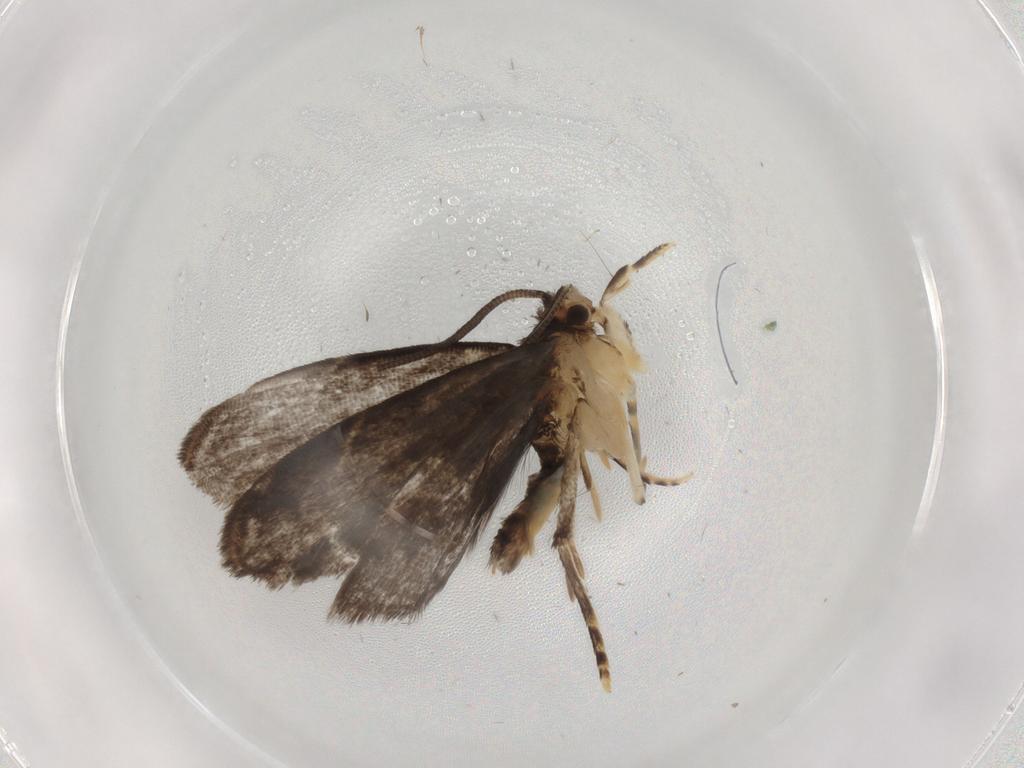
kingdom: Animalia
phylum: Arthropoda
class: Insecta
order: Lepidoptera
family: Dryadaulidae
